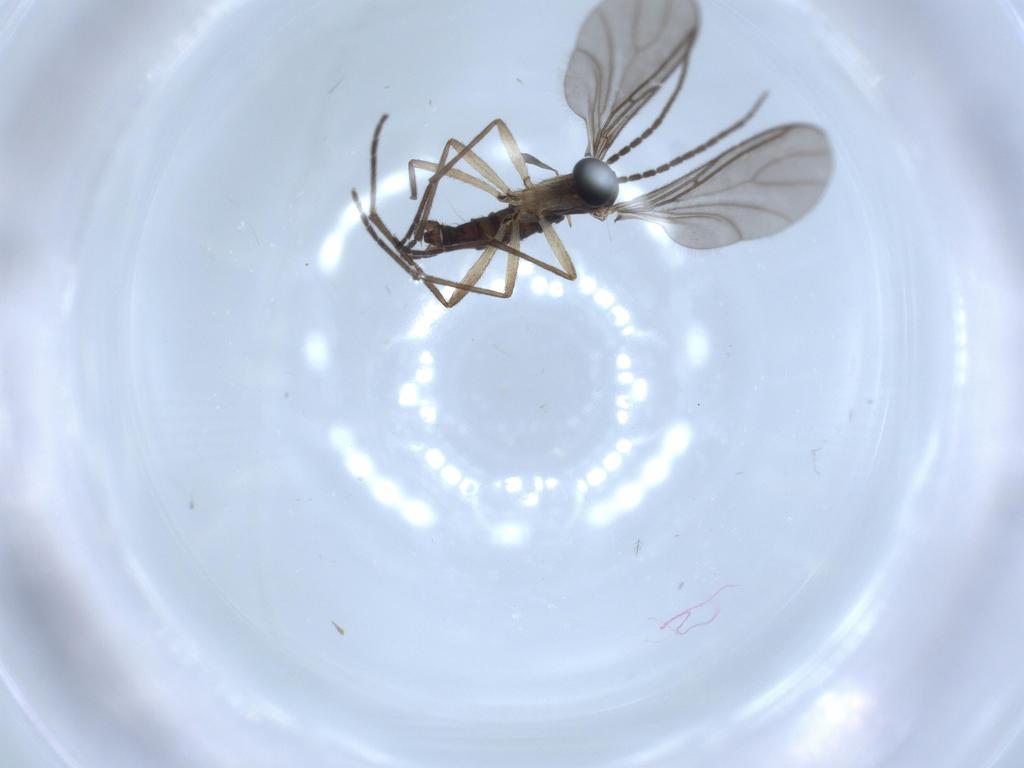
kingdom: Animalia
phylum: Arthropoda
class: Insecta
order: Diptera
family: Sciaridae
